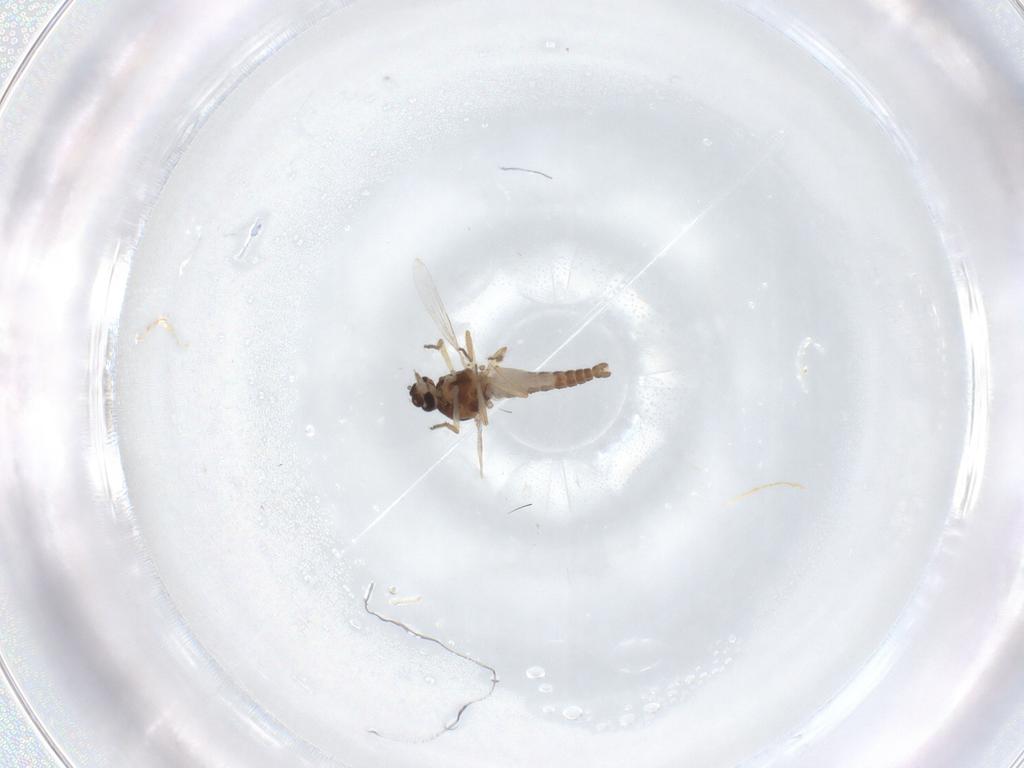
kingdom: Animalia
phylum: Arthropoda
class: Insecta
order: Diptera
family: Ceratopogonidae
